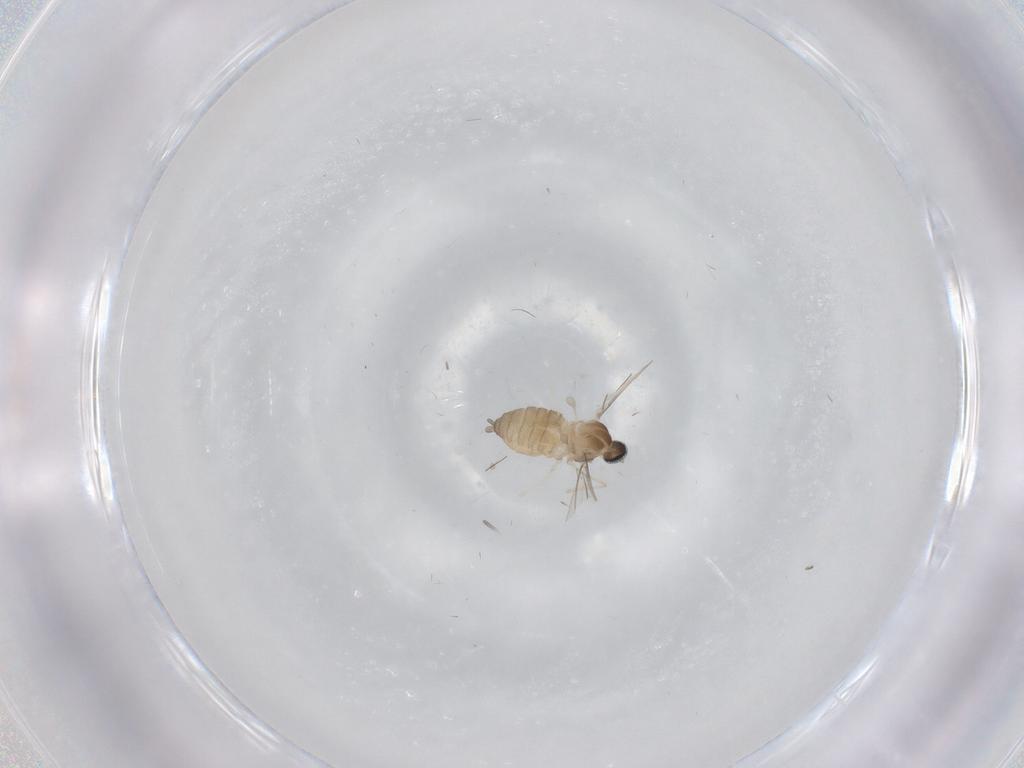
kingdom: Animalia
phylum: Arthropoda
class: Insecta
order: Diptera
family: Cecidomyiidae
